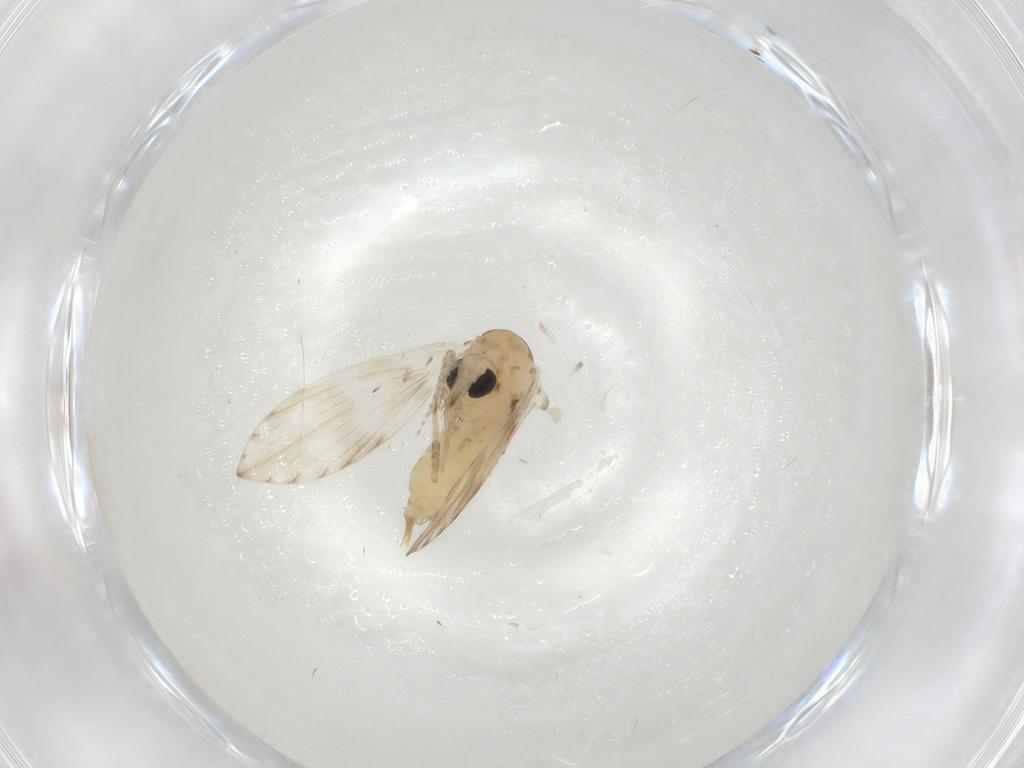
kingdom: Animalia
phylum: Arthropoda
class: Insecta
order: Diptera
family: Psychodidae
